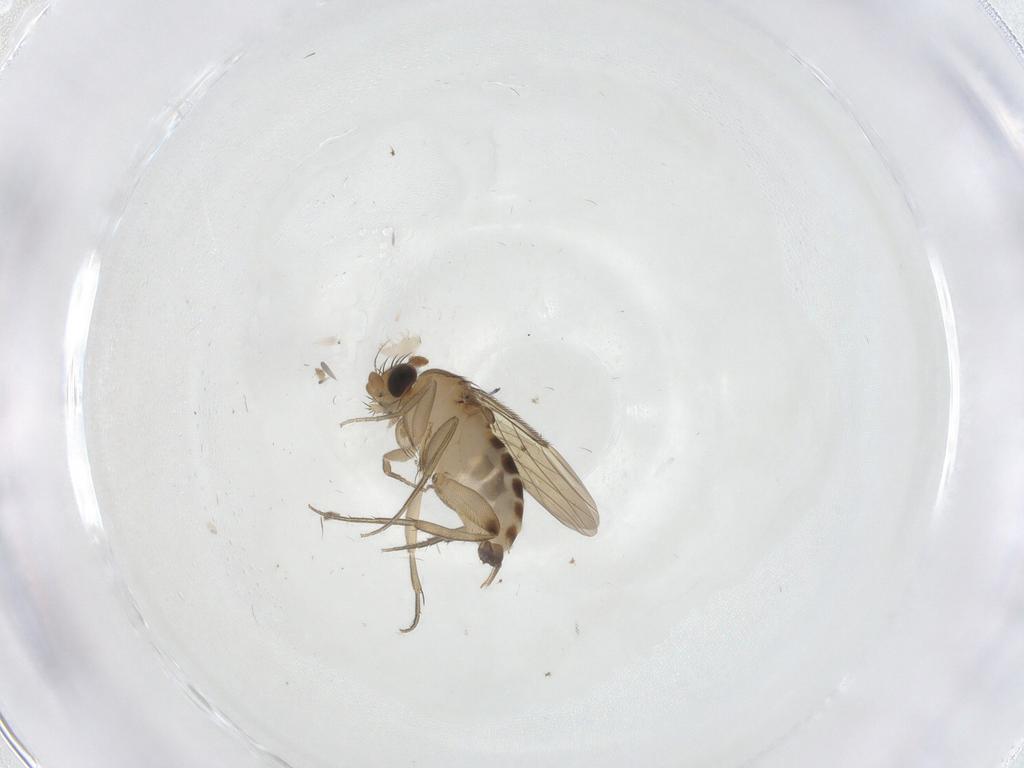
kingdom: Animalia
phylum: Arthropoda
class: Insecta
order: Diptera
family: Phoridae
